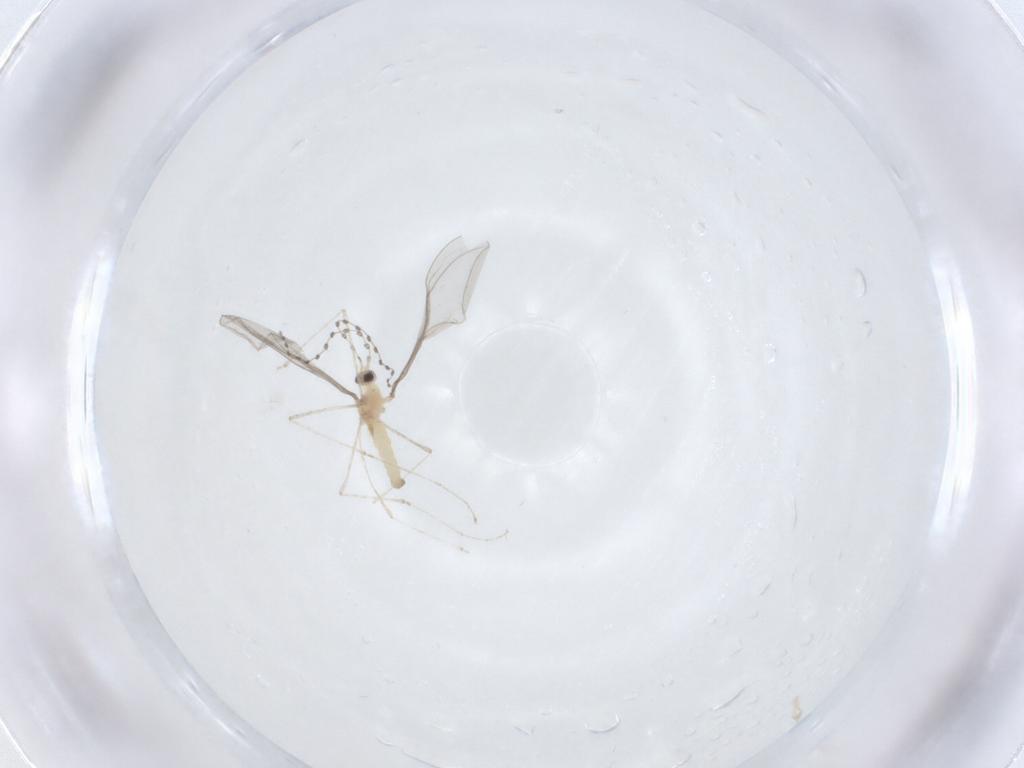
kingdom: Animalia
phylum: Arthropoda
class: Insecta
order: Diptera
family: Cecidomyiidae
